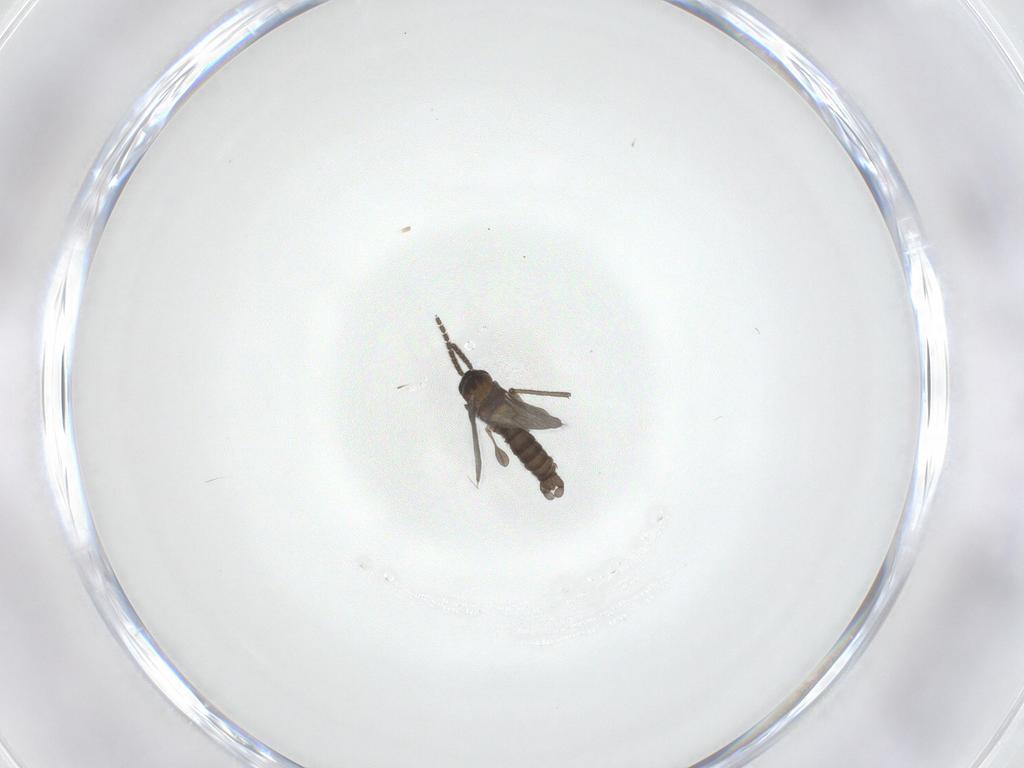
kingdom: Animalia
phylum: Arthropoda
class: Insecta
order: Diptera
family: Sciaridae
